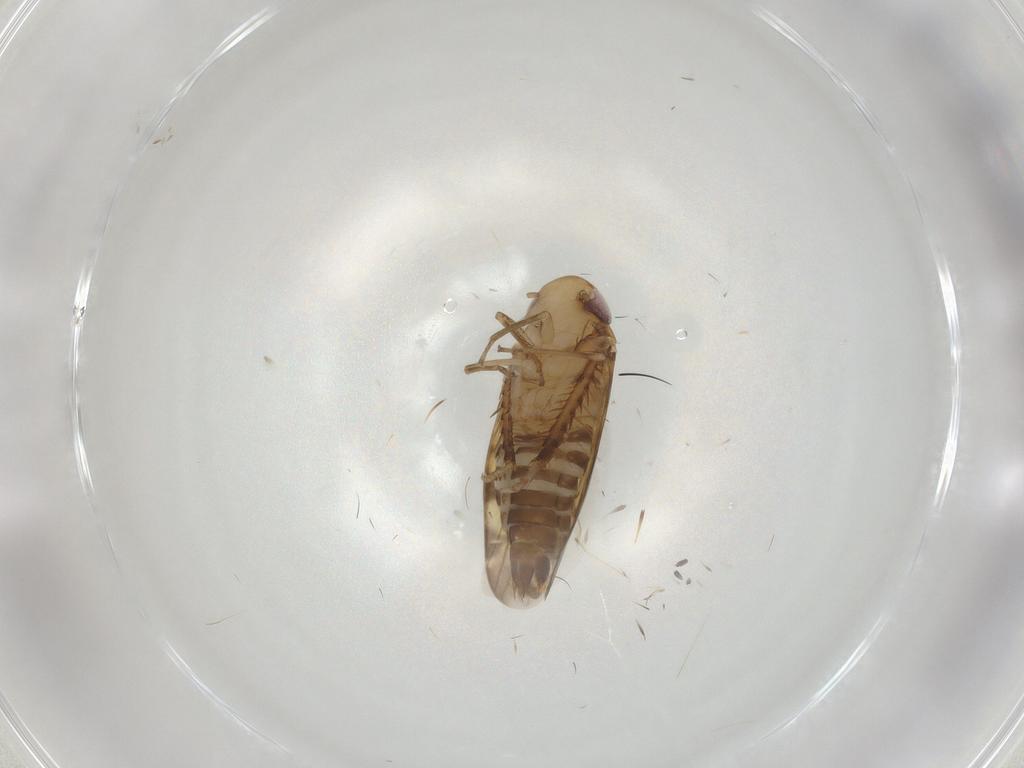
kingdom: Animalia
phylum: Arthropoda
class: Insecta
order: Hemiptera
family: Cicadellidae
